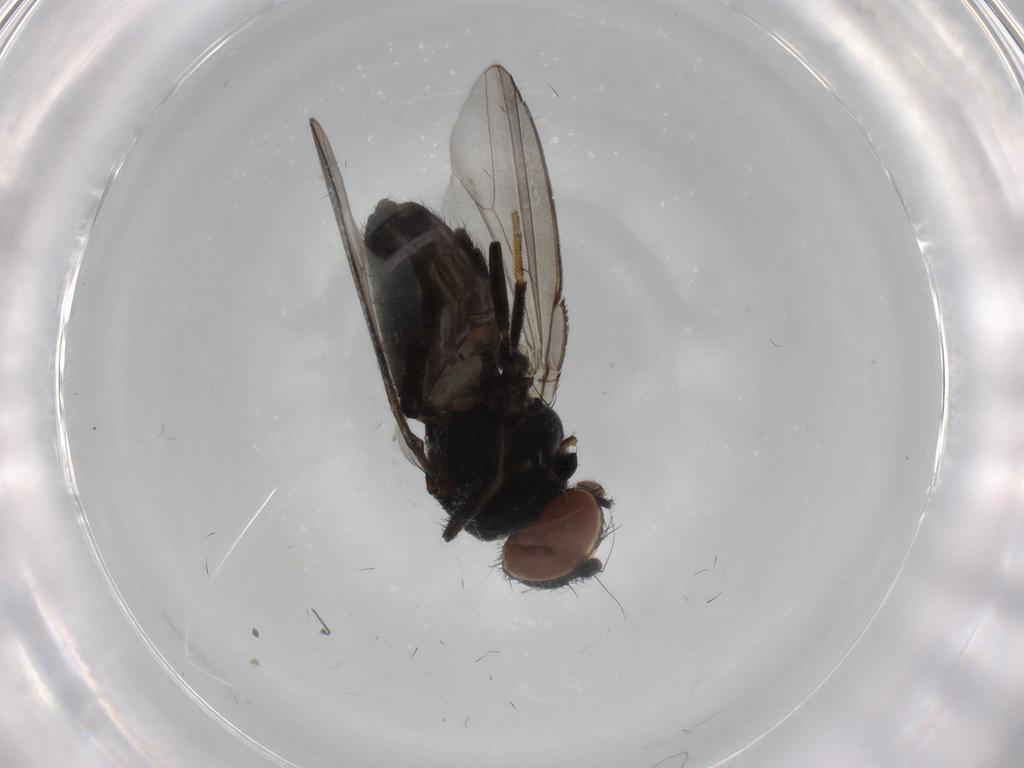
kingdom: Animalia
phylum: Arthropoda
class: Insecta
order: Diptera
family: Milichiidae
